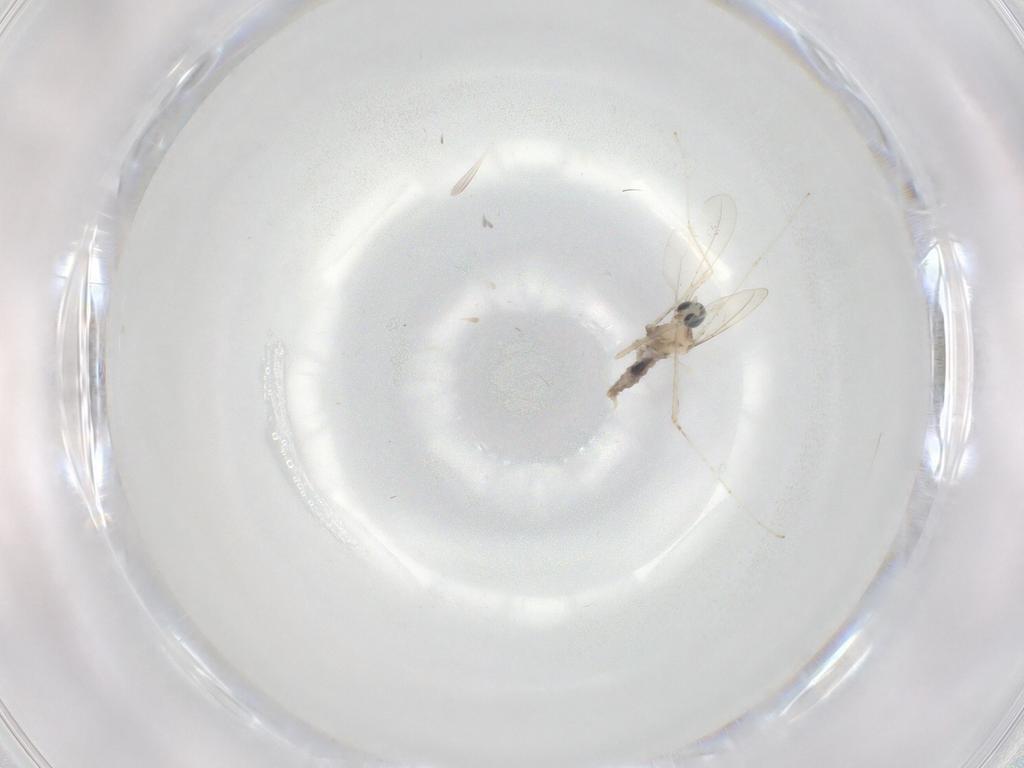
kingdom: Animalia
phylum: Arthropoda
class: Insecta
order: Diptera
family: Cecidomyiidae
